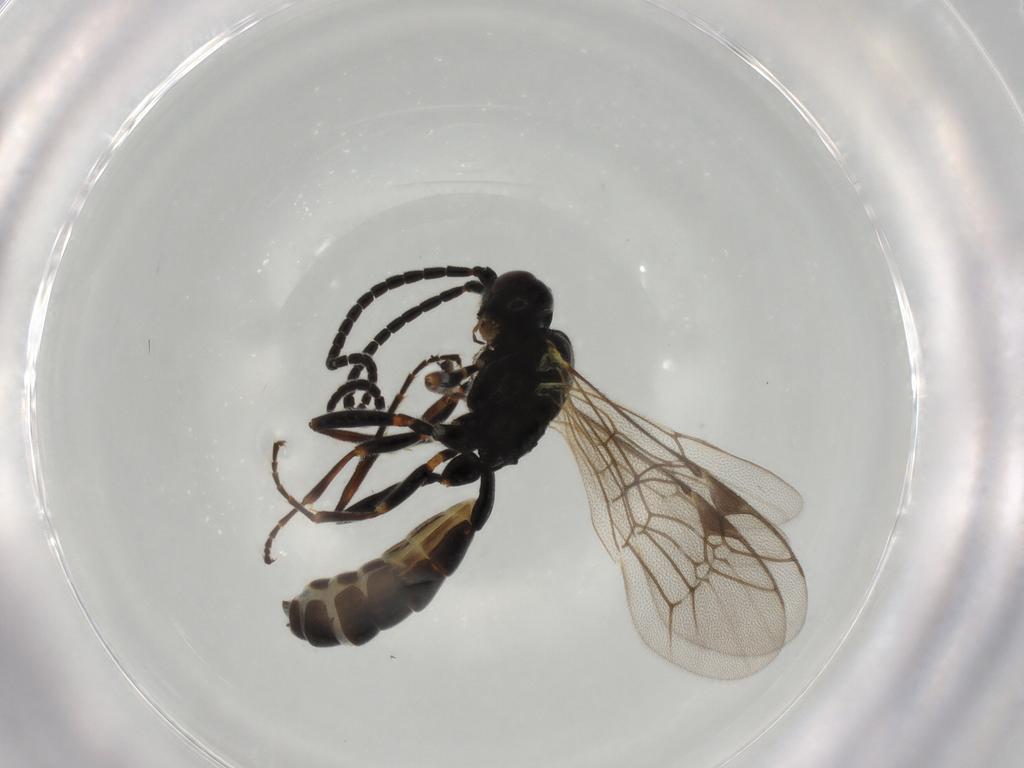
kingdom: Animalia
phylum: Arthropoda
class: Insecta
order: Hymenoptera
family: Ichneumonidae
